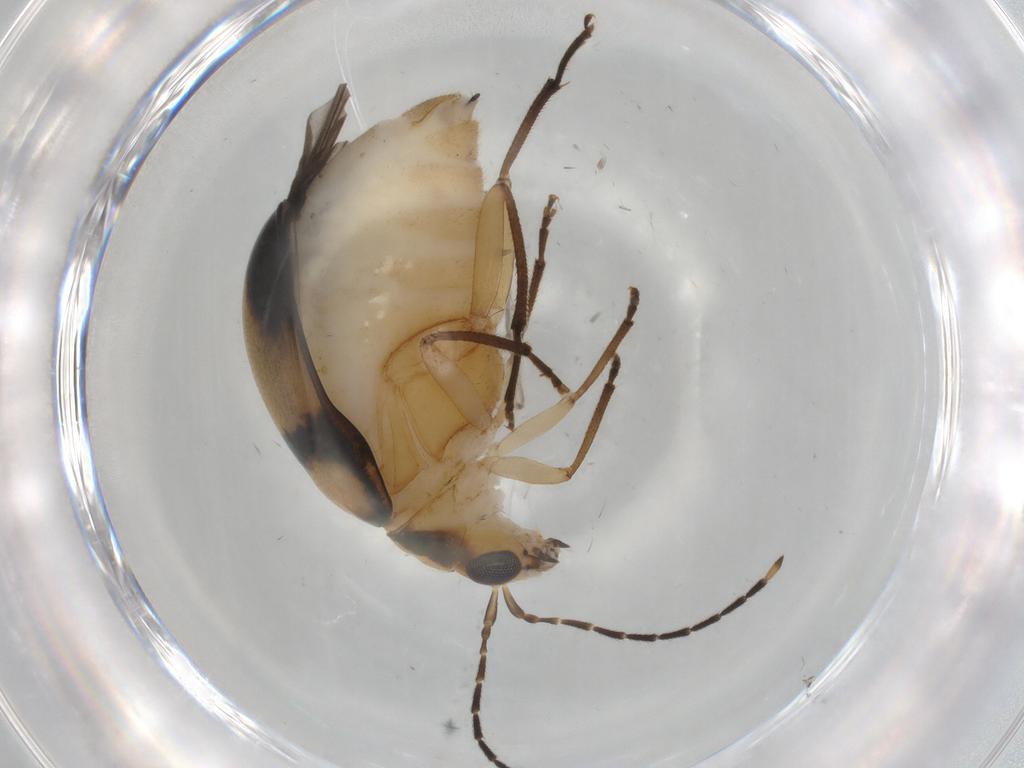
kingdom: Animalia
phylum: Arthropoda
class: Insecta
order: Coleoptera
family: Chrysomelidae
